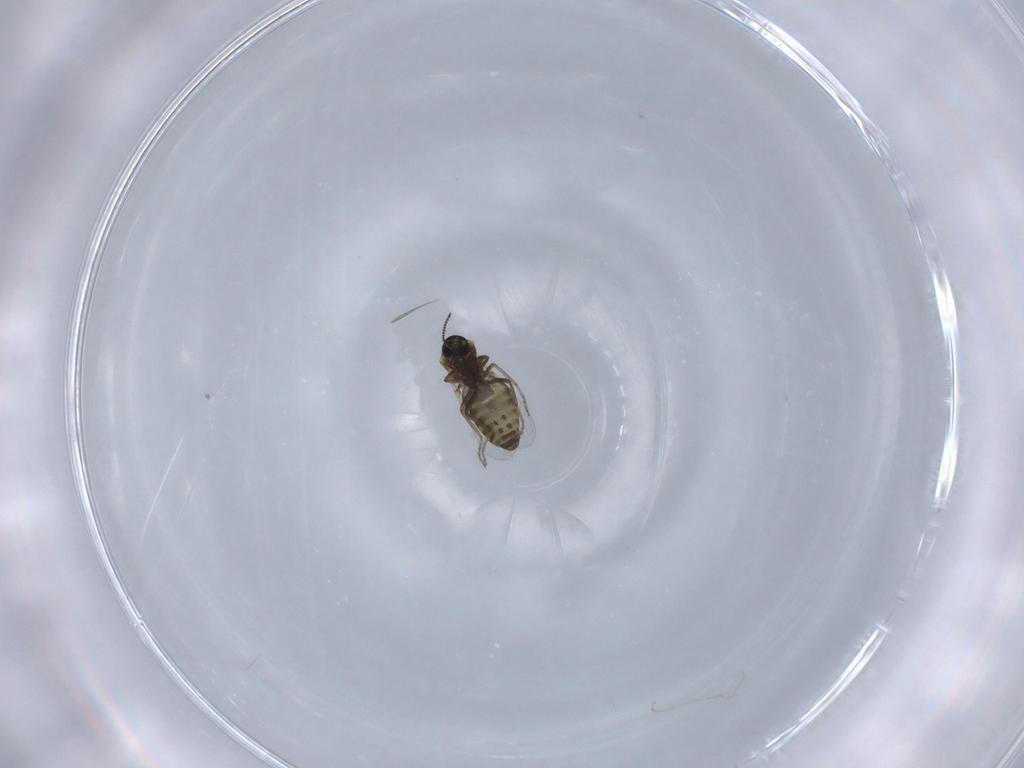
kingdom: Animalia
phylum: Arthropoda
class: Insecta
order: Diptera
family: Ceratopogonidae
